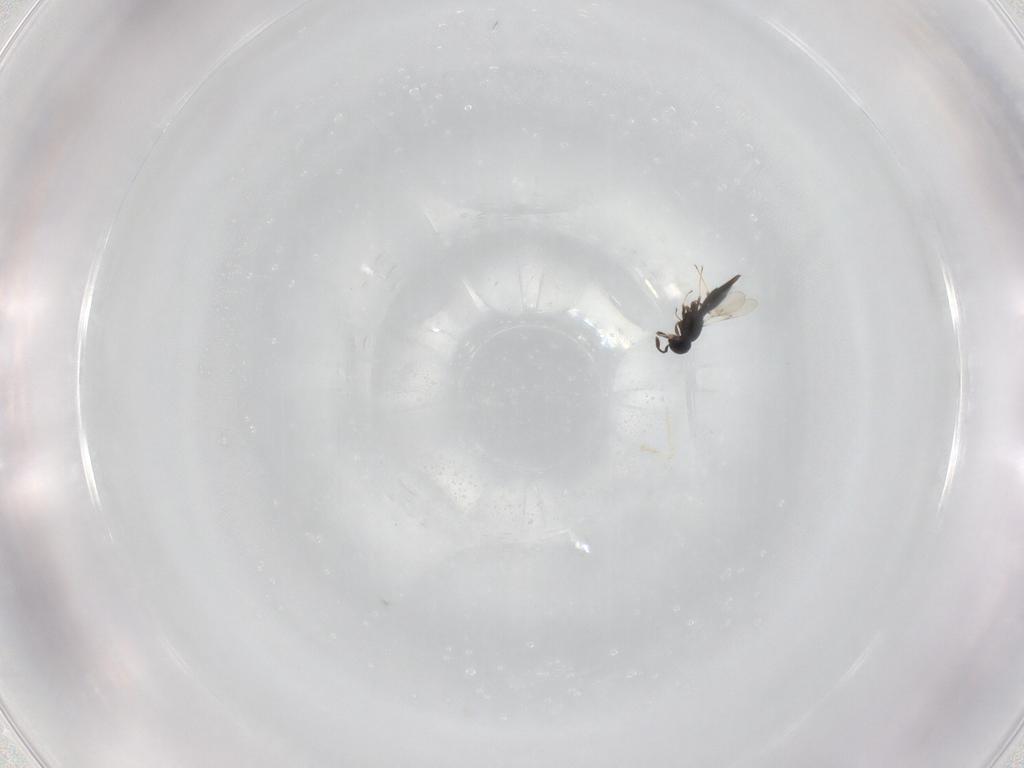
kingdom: Animalia
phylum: Arthropoda
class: Insecta
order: Hymenoptera
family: Scelionidae
